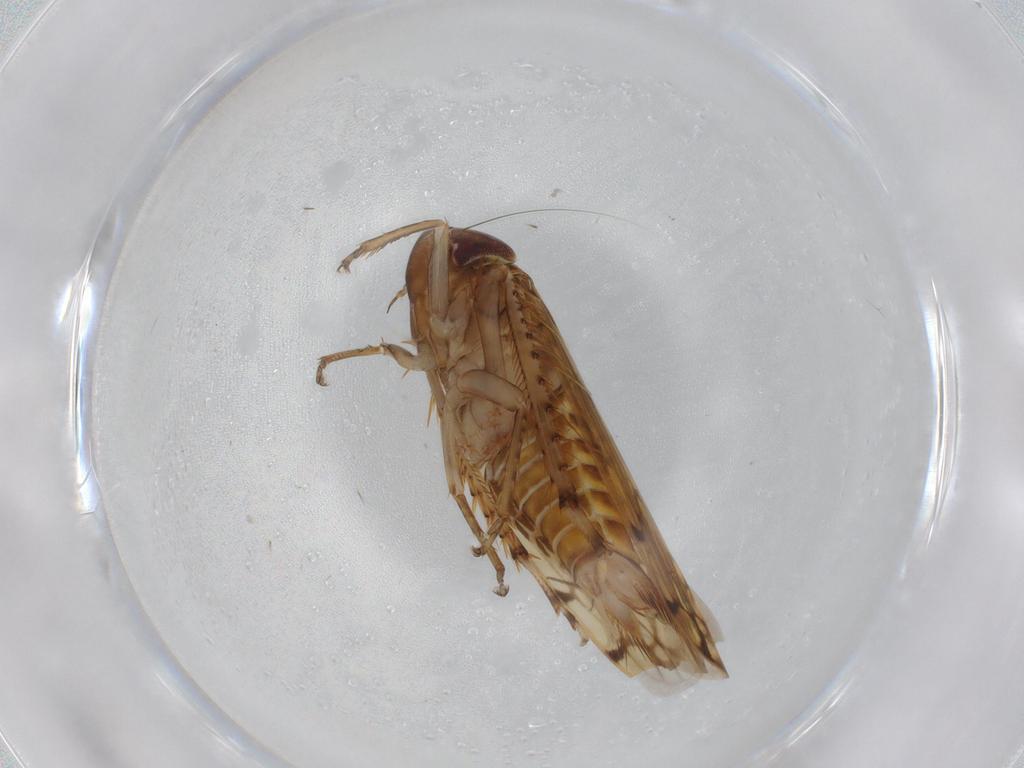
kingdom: Animalia
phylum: Arthropoda
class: Insecta
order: Hemiptera
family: Cicadellidae
